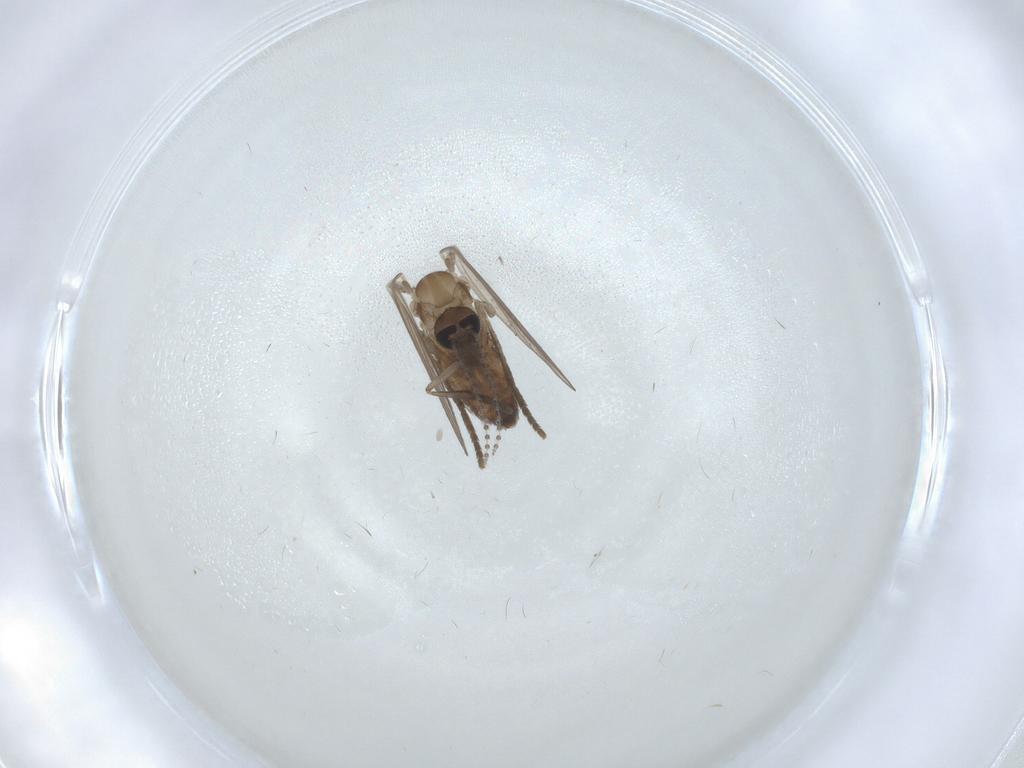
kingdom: Animalia
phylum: Arthropoda
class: Insecta
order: Diptera
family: Psychodidae
